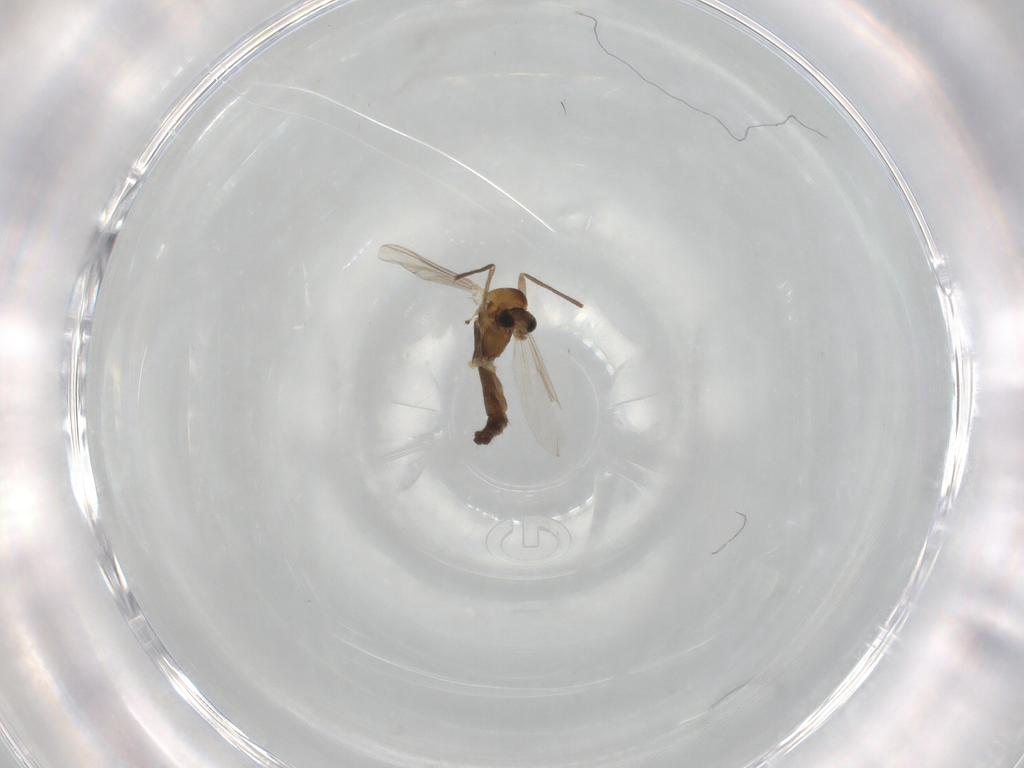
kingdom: Animalia
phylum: Arthropoda
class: Insecta
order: Diptera
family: Chironomidae
